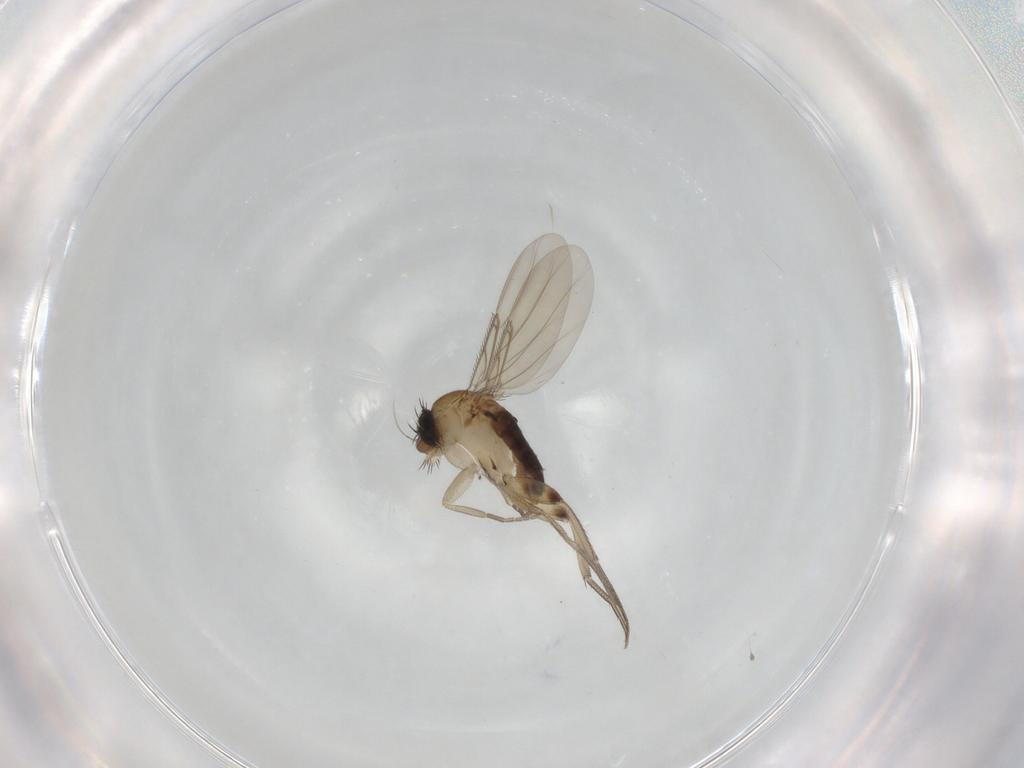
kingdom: Animalia
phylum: Arthropoda
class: Insecta
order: Diptera
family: Phoridae
